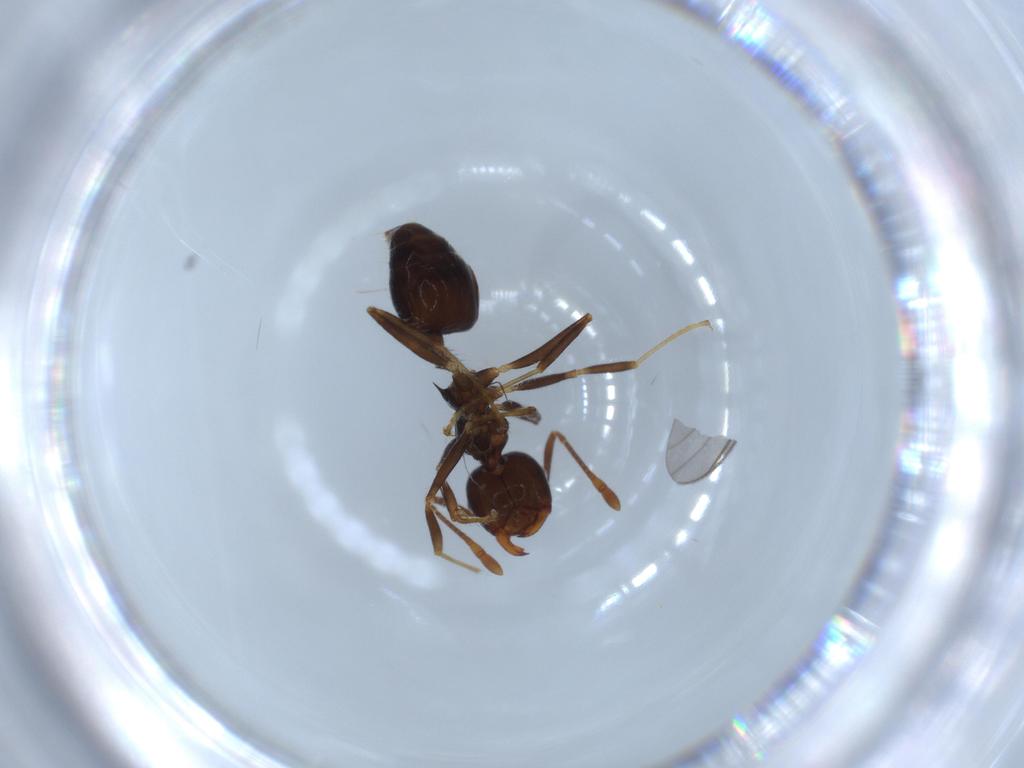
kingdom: Animalia
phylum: Arthropoda
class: Insecta
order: Hymenoptera
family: Formicidae
